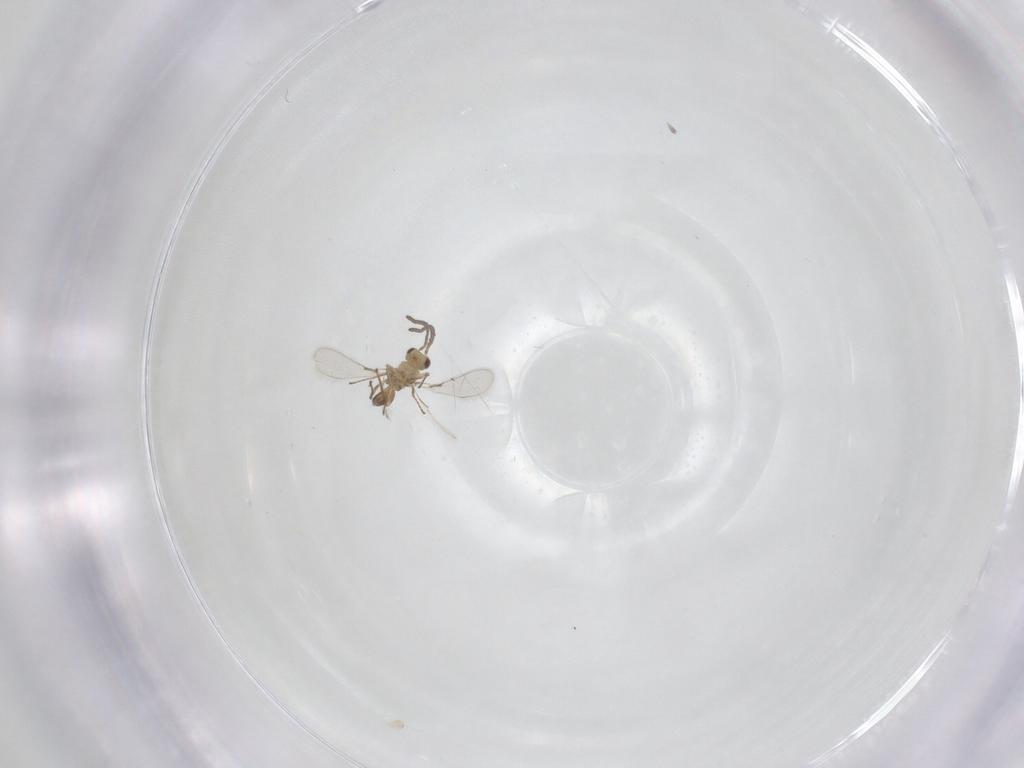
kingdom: Animalia
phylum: Arthropoda
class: Insecta
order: Hymenoptera
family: Mymaridae
